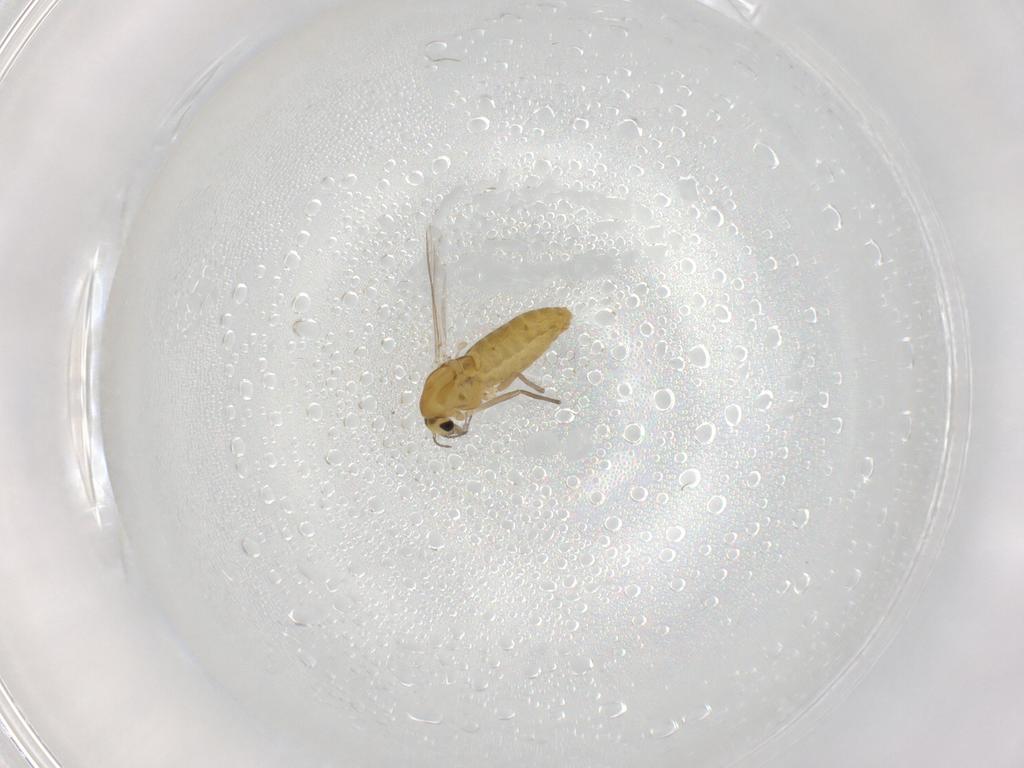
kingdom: Animalia
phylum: Arthropoda
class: Insecta
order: Diptera
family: Chironomidae
